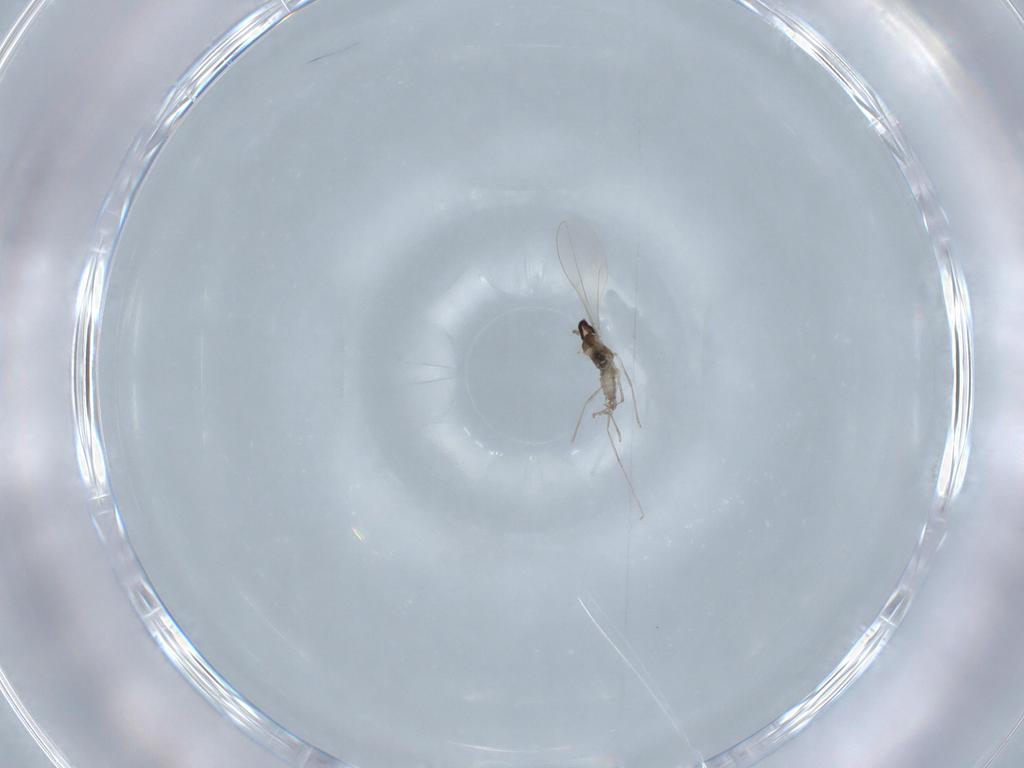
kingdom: Animalia
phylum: Arthropoda
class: Insecta
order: Diptera
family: Cecidomyiidae
